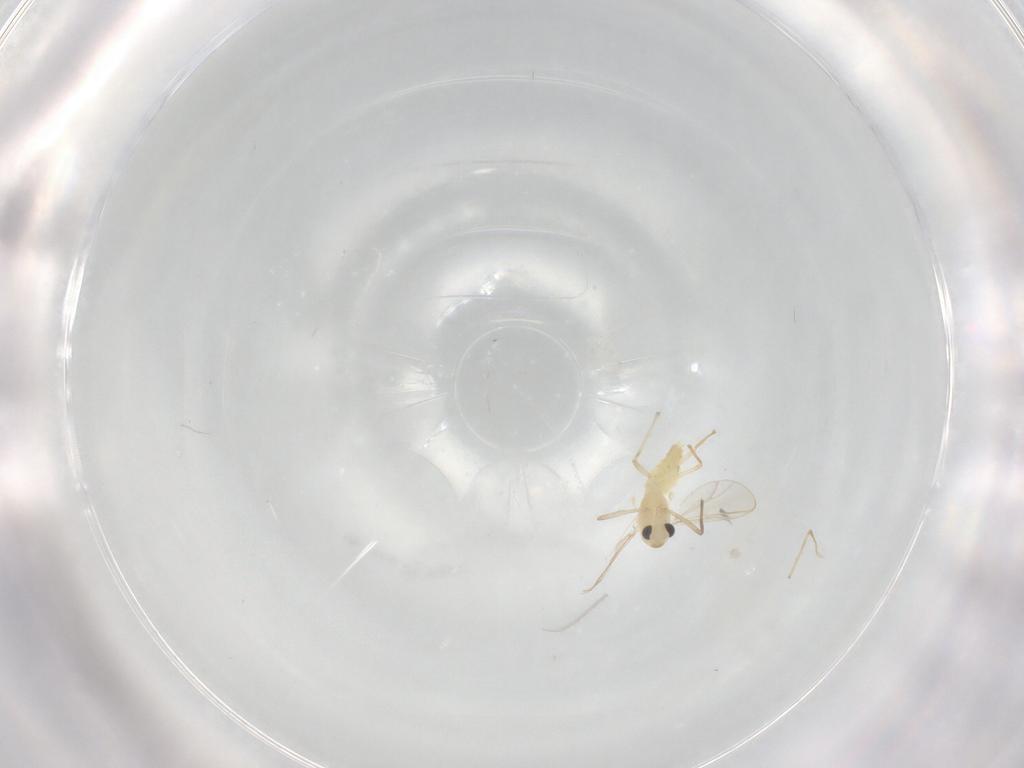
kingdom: Animalia
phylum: Arthropoda
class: Insecta
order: Diptera
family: Chironomidae
